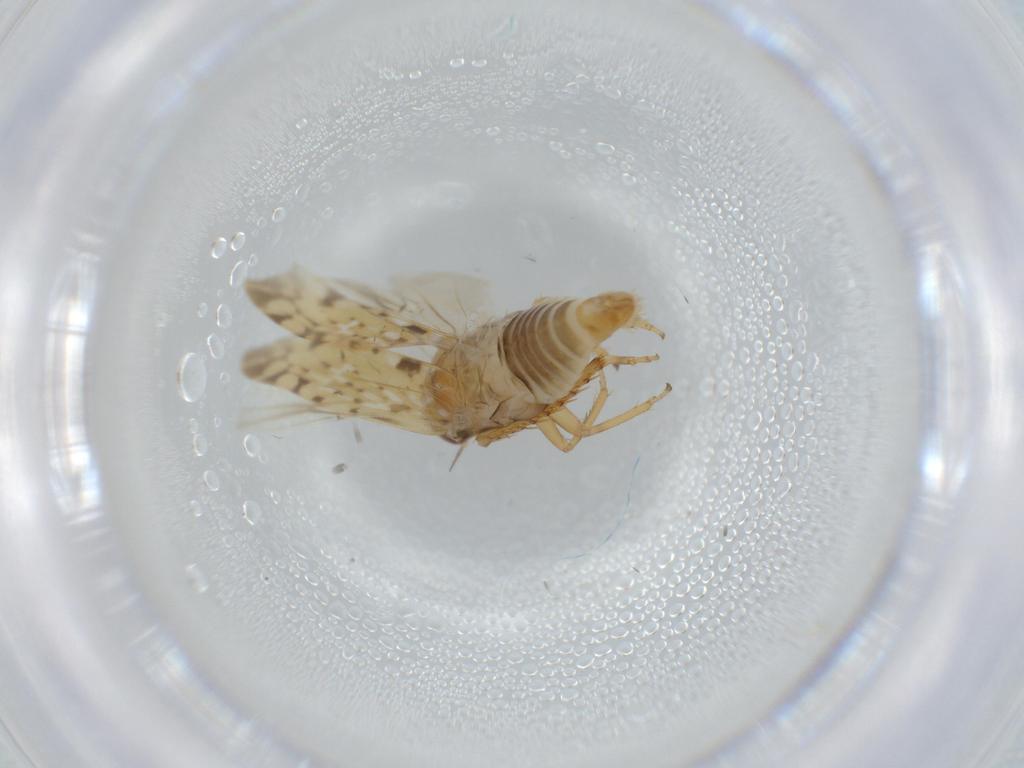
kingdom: Animalia
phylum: Arthropoda
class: Insecta
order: Hemiptera
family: Cicadellidae
